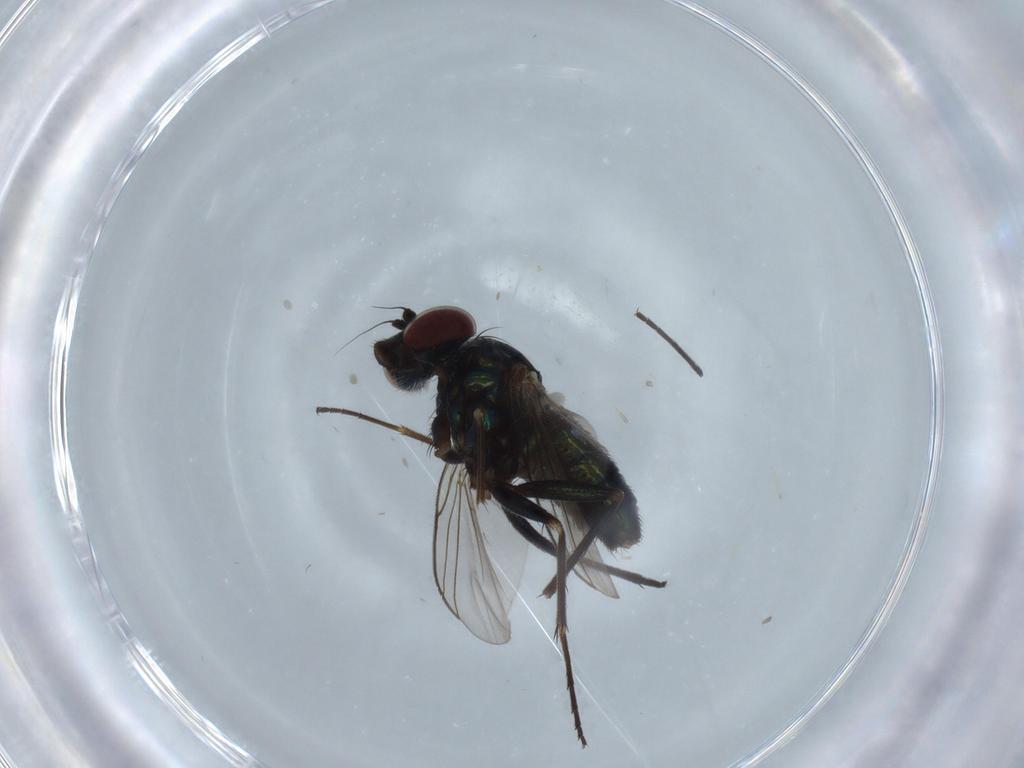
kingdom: Animalia
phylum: Arthropoda
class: Insecta
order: Diptera
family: Dolichopodidae
